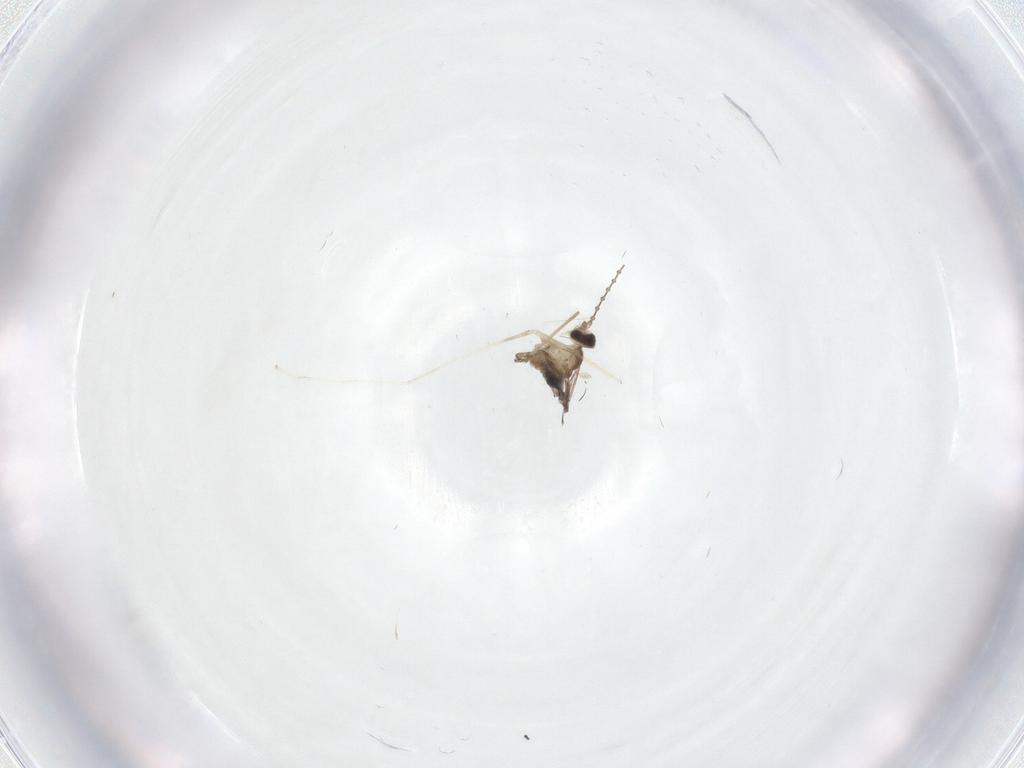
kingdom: Animalia
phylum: Arthropoda
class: Insecta
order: Diptera
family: Cecidomyiidae
